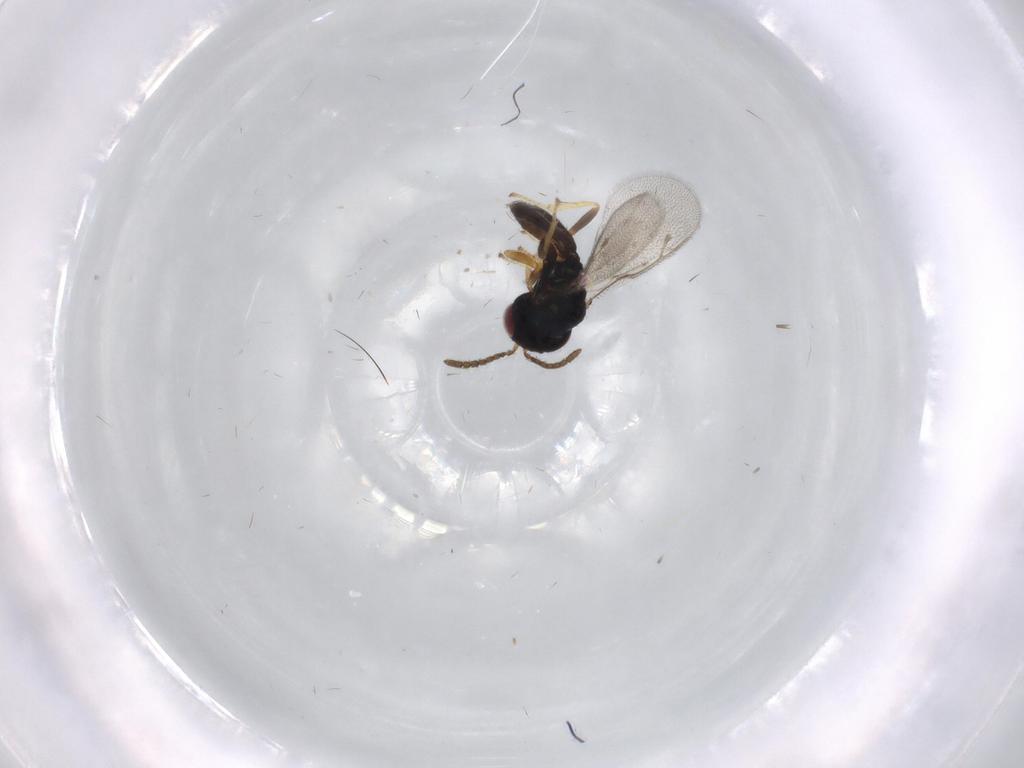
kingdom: Animalia
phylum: Arthropoda
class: Insecta
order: Hymenoptera
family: Pteromalidae
